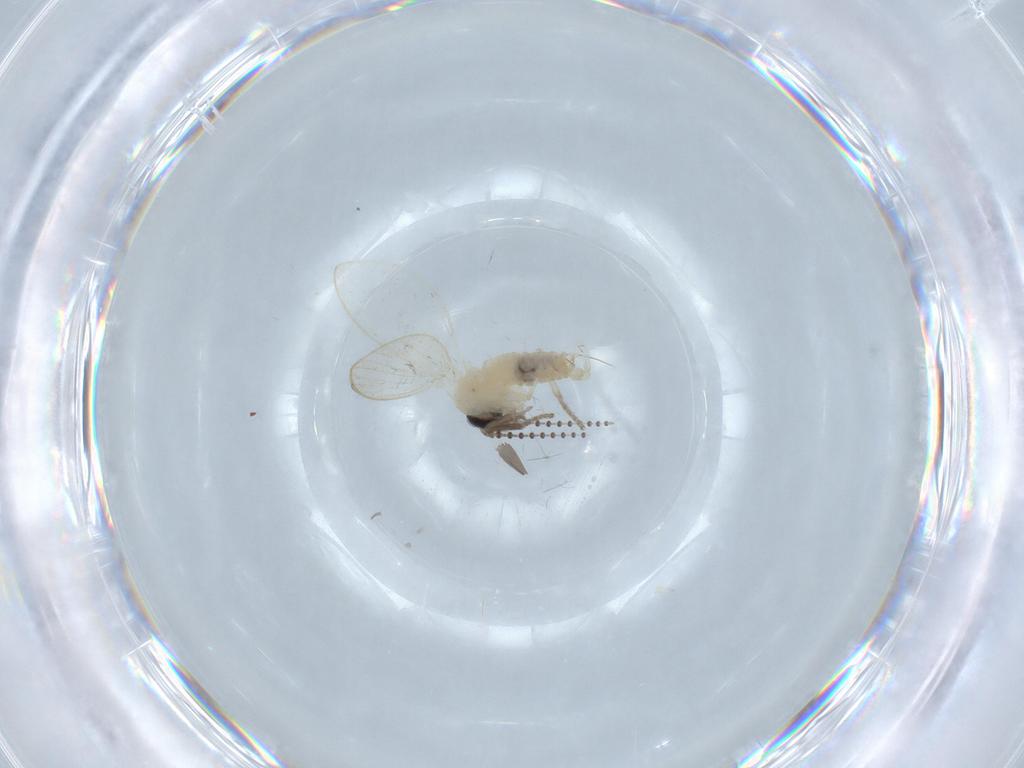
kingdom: Animalia
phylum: Arthropoda
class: Insecta
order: Diptera
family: Psychodidae
